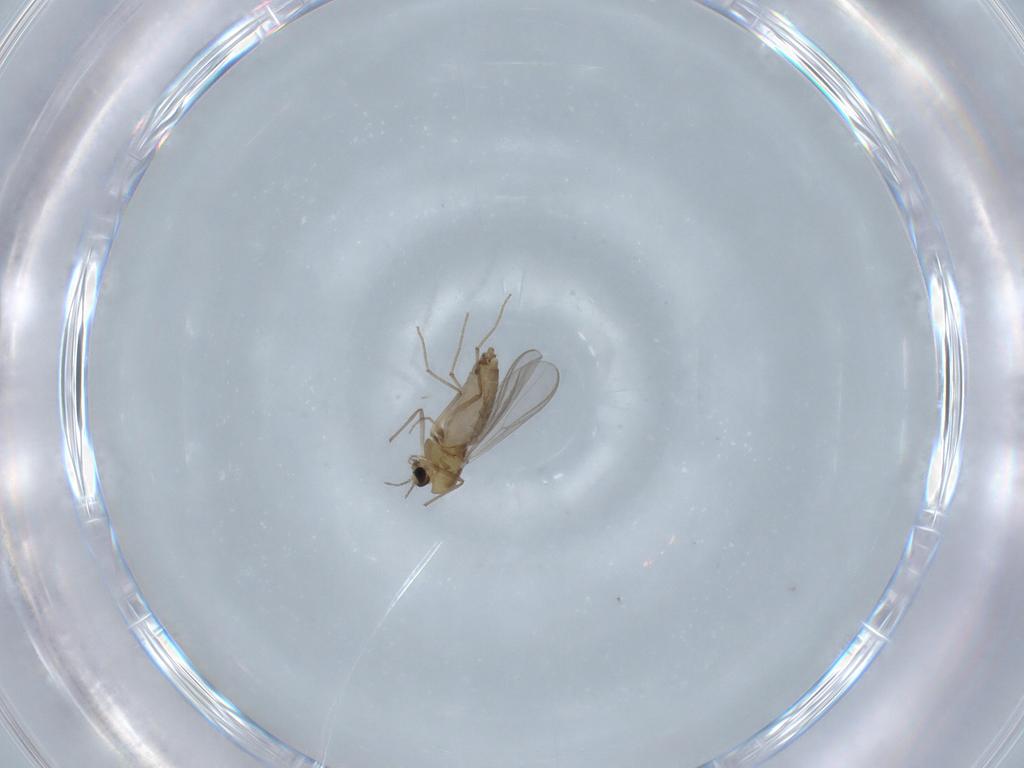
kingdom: Animalia
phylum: Arthropoda
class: Insecta
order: Diptera
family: Chironomidae
